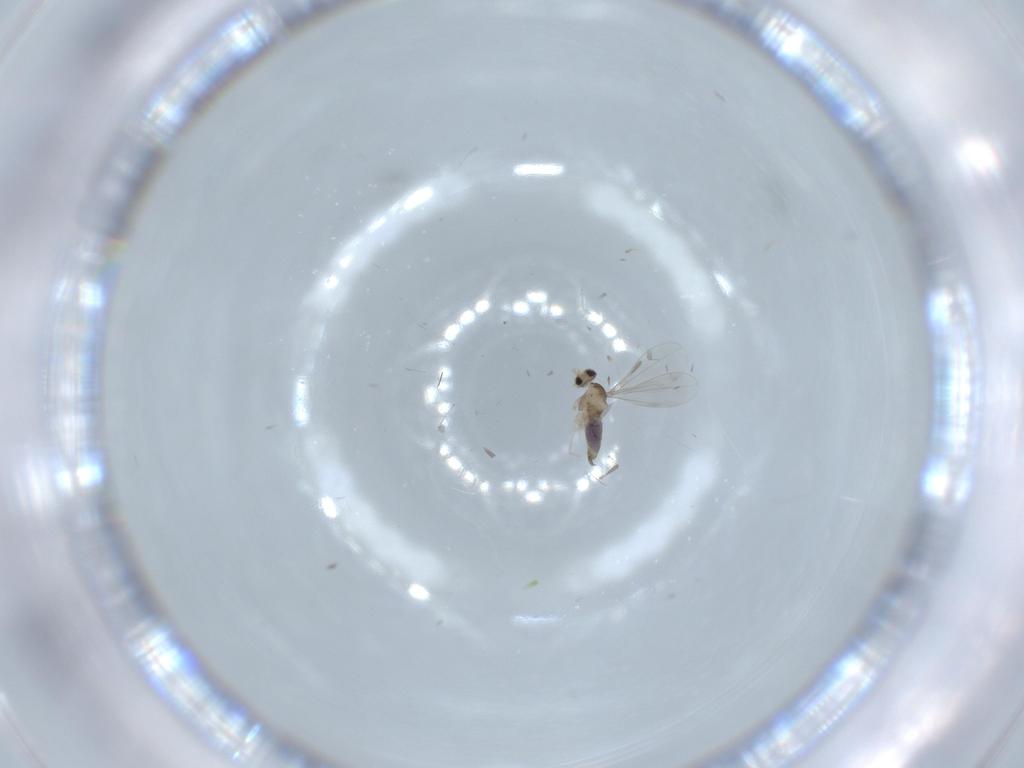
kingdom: Animalia
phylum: Arthropoda
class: Insecta
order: Diptera
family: Cecidomyiidae
